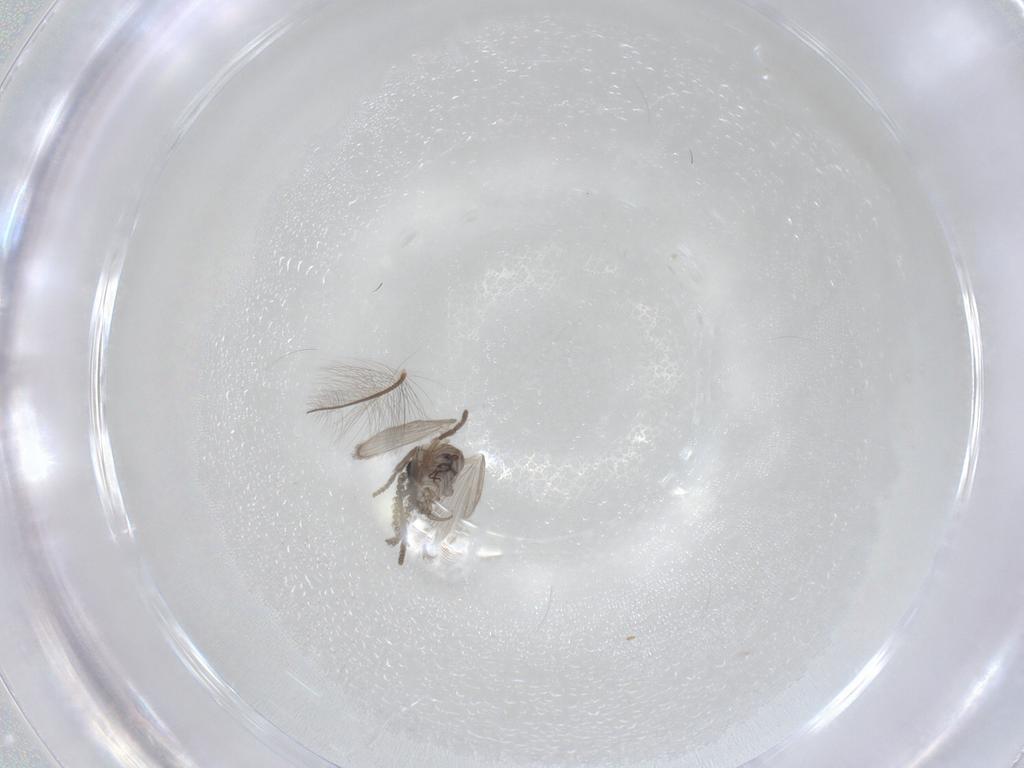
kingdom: Animalia
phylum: Arthropoda
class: Insecta
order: Diptera
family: Psychodidae
